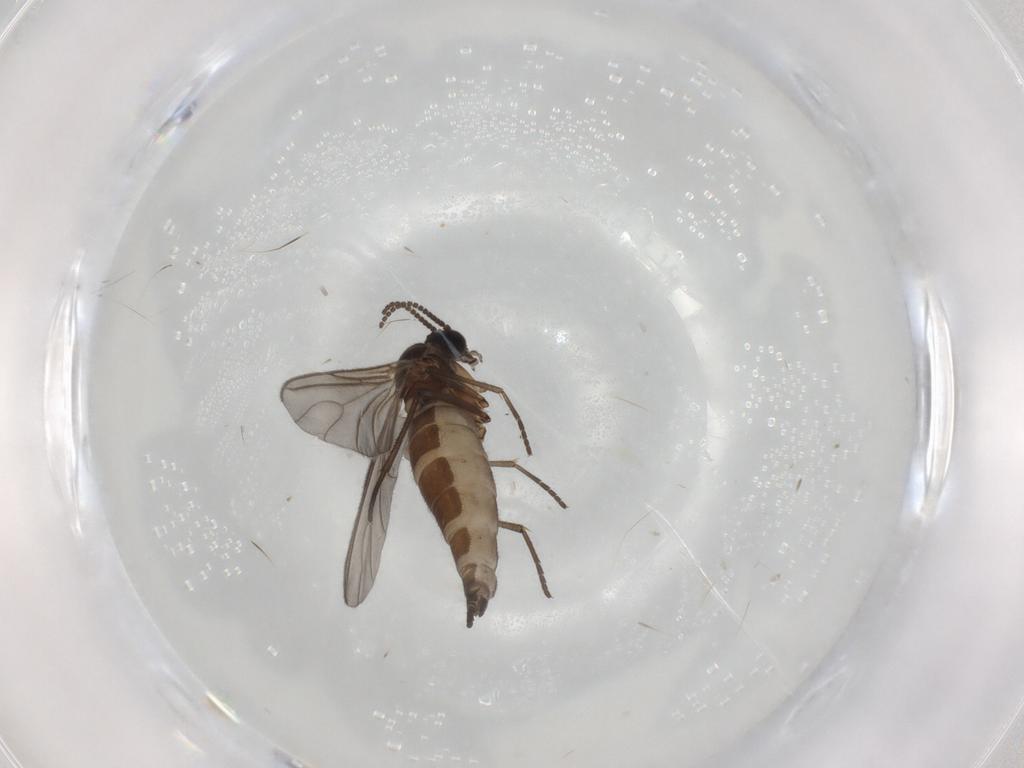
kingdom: Animalia
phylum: Arthropoda
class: Insecta
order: Diptera
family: Sciaridae
